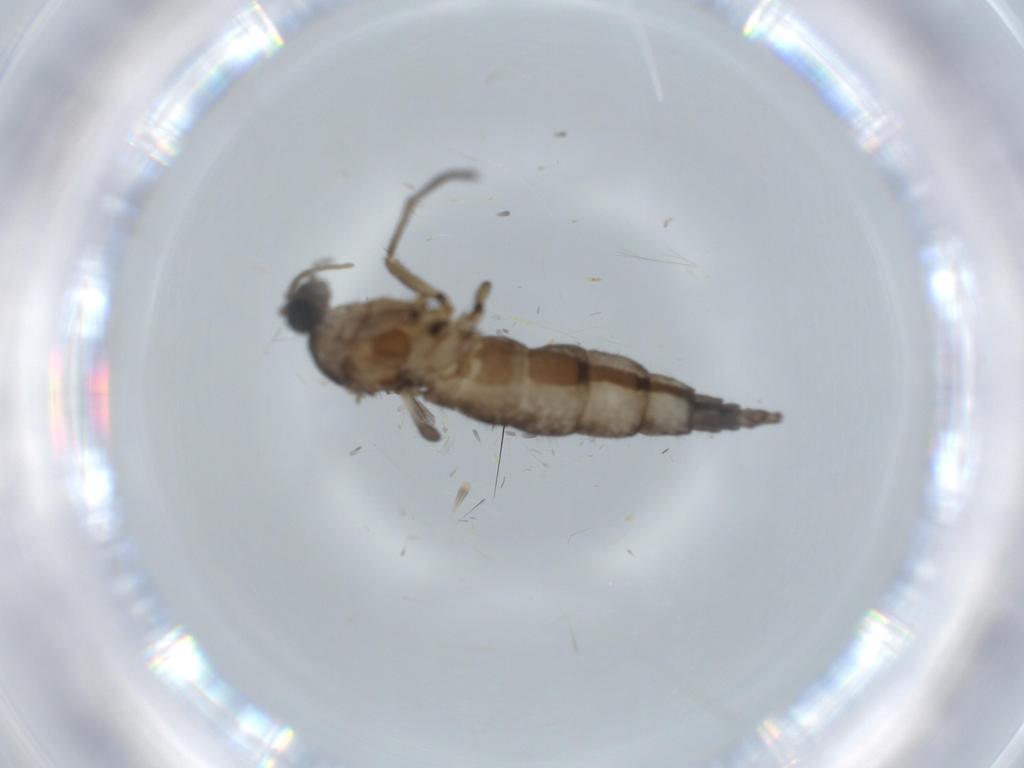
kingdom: Animalia
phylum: Arthropoda
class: Insecta
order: Diptera
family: Sciaridae
